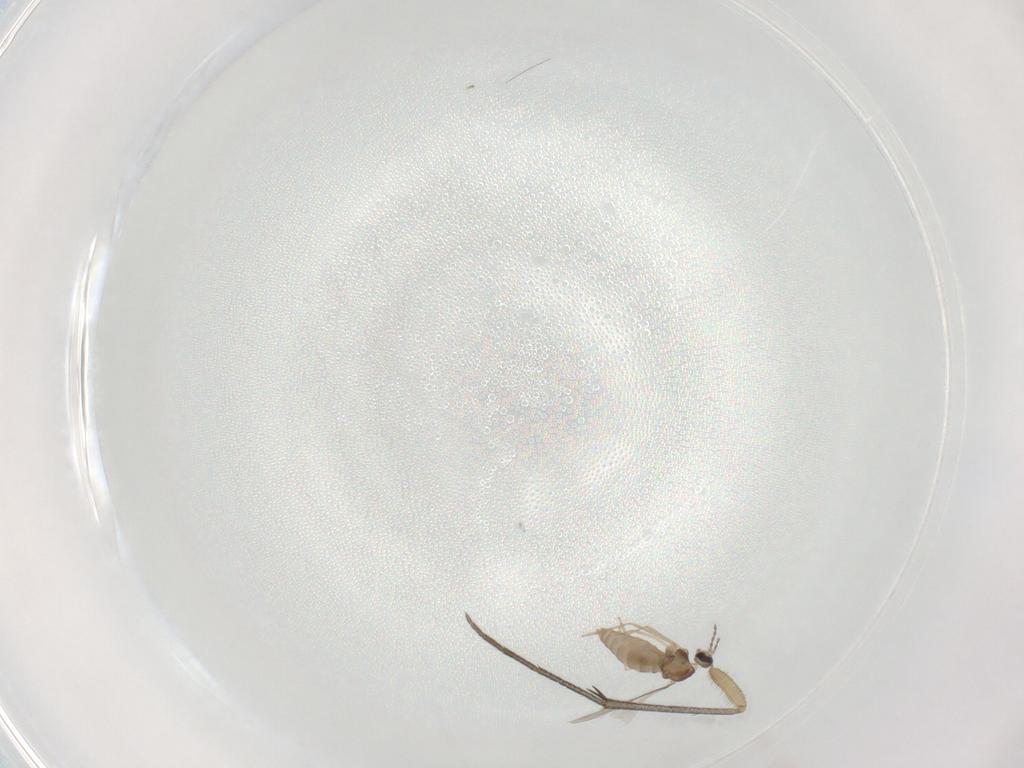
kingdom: Animalia
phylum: Arthropoda
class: Insecta
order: Diptera
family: Cecidomyiidae
